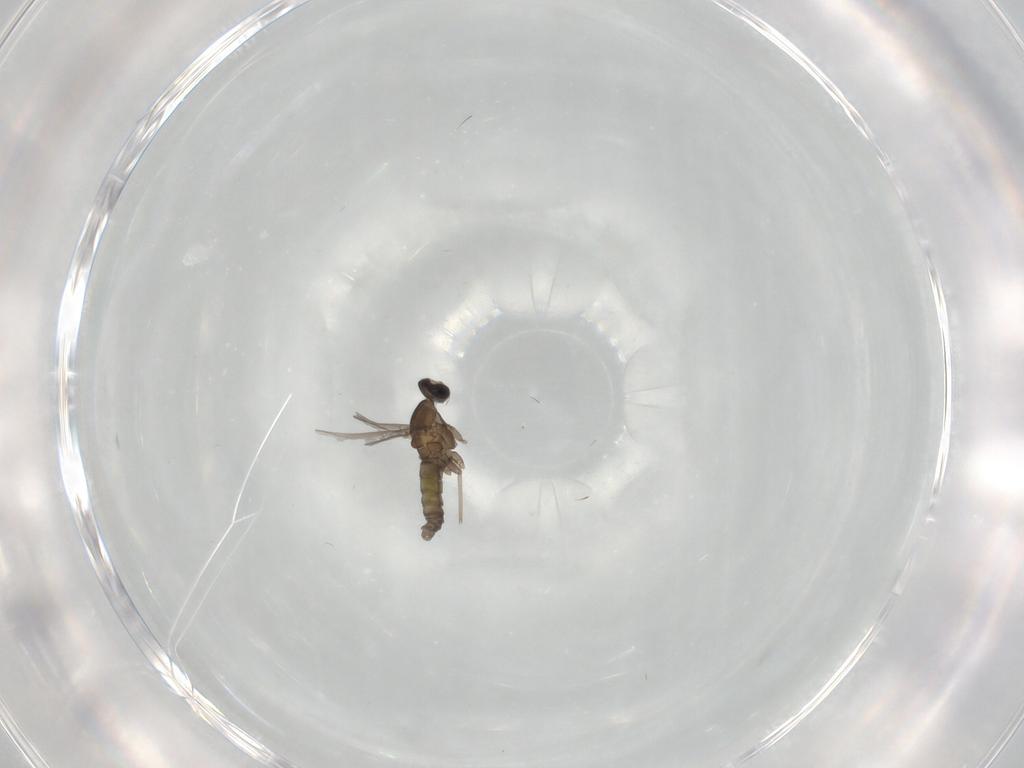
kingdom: Animalia
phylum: Arthropoda
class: Insecta
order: Diptera
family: Cecidomyiidae
